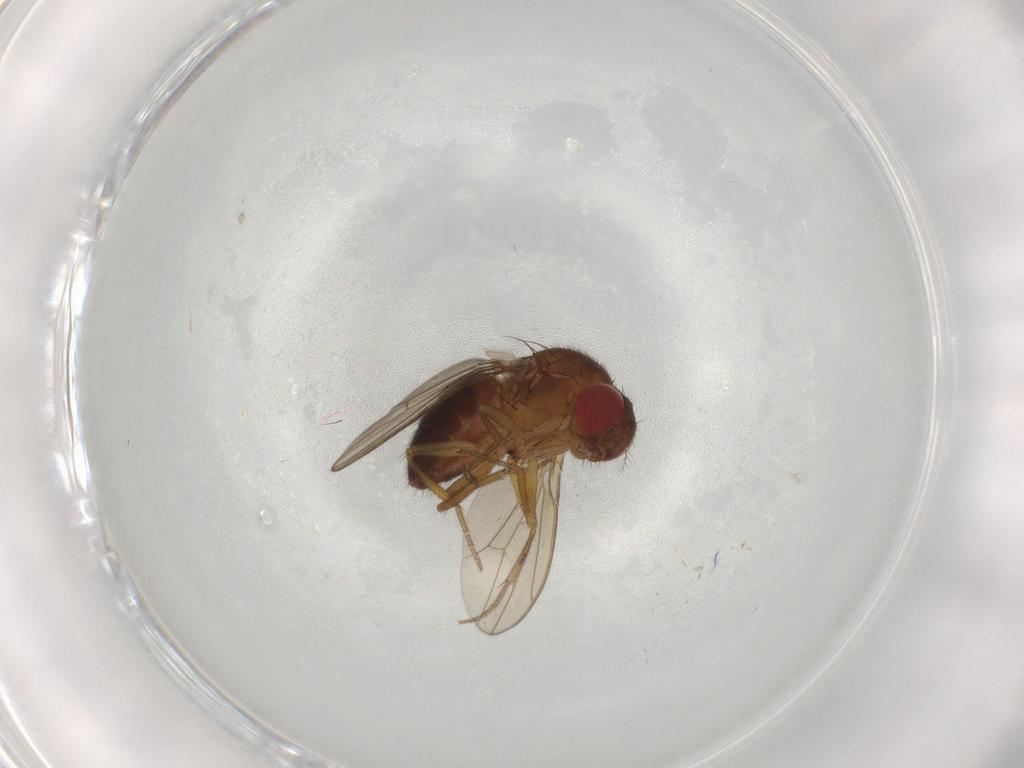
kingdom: Animalia
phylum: Arthropoda
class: Insecta
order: Diptera
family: Drosophilidae
